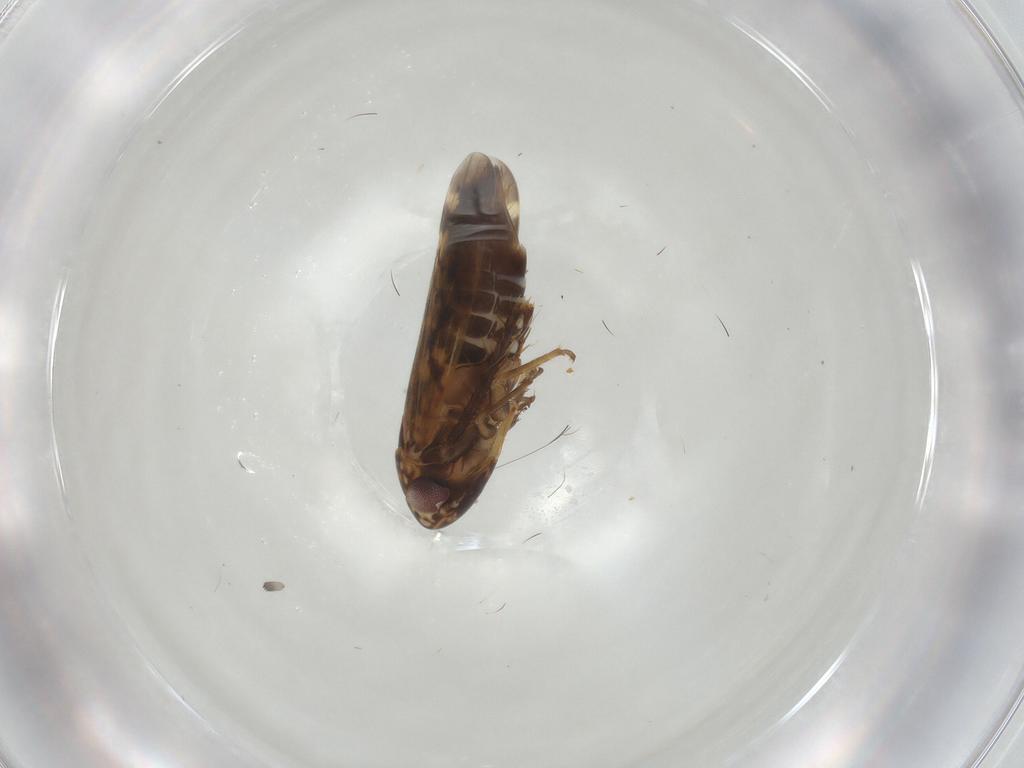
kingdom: Animalia
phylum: Arthropoda
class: Insecta
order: Hemiptera
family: Cicadellidae
